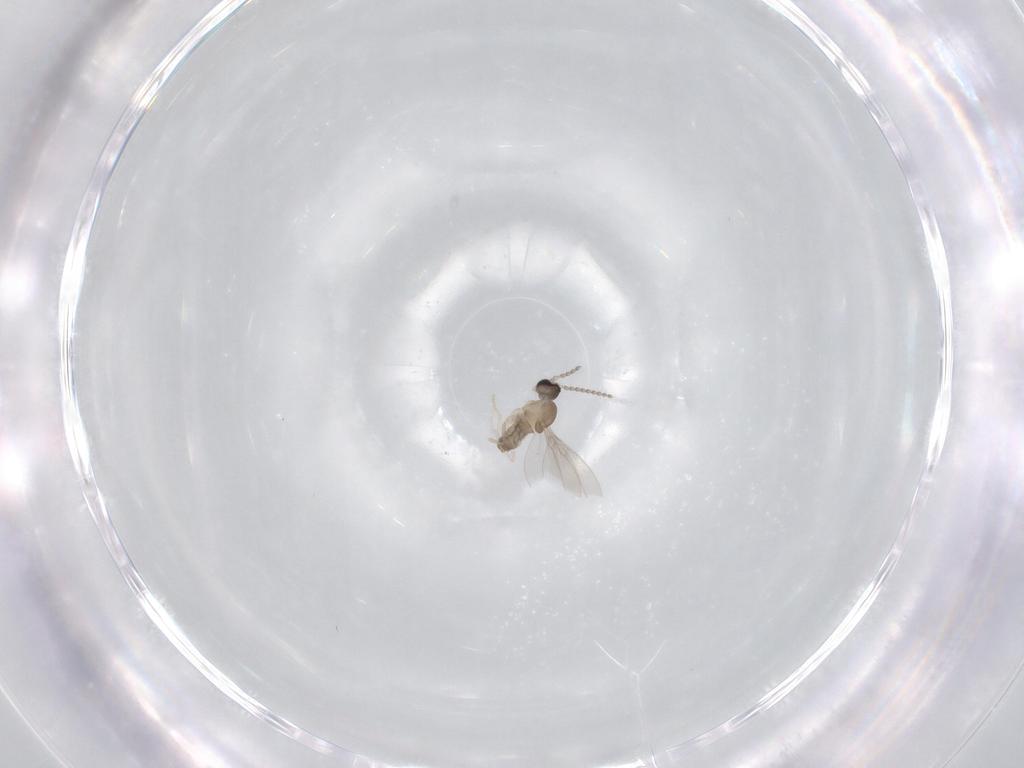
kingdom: Animalia
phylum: Arthropoda
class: Insecta
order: Diptera
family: Cecidomyiidae
